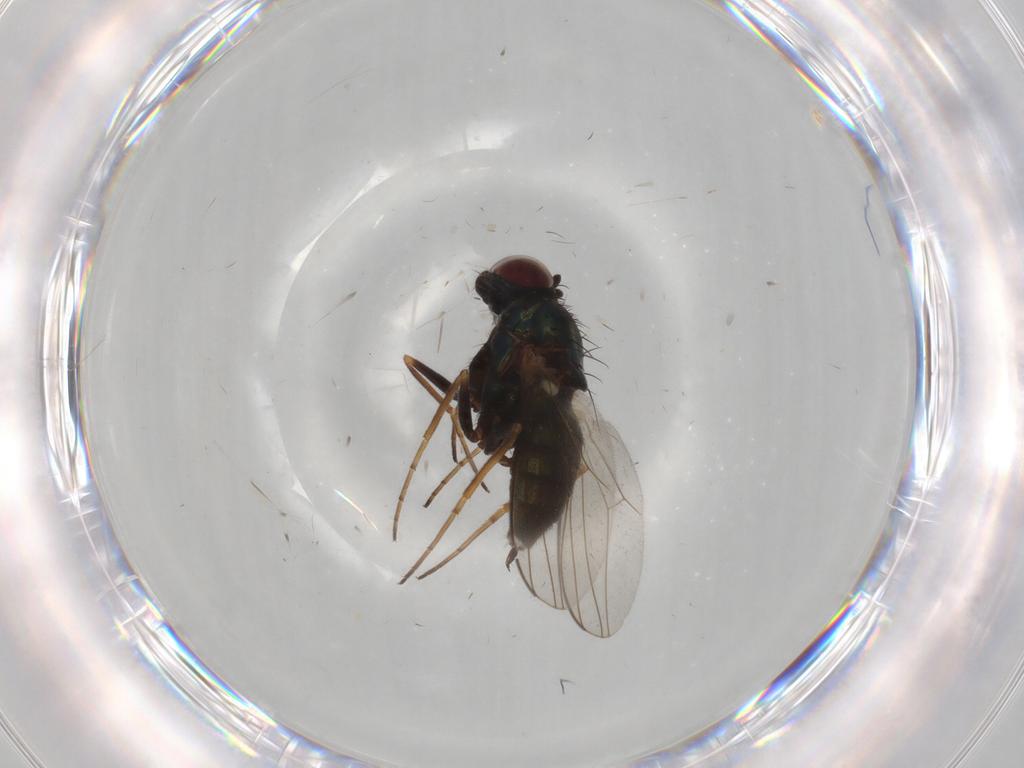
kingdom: Animalia
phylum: Arthropoda
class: Insecta
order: Diptera
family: Dolichopodidae
